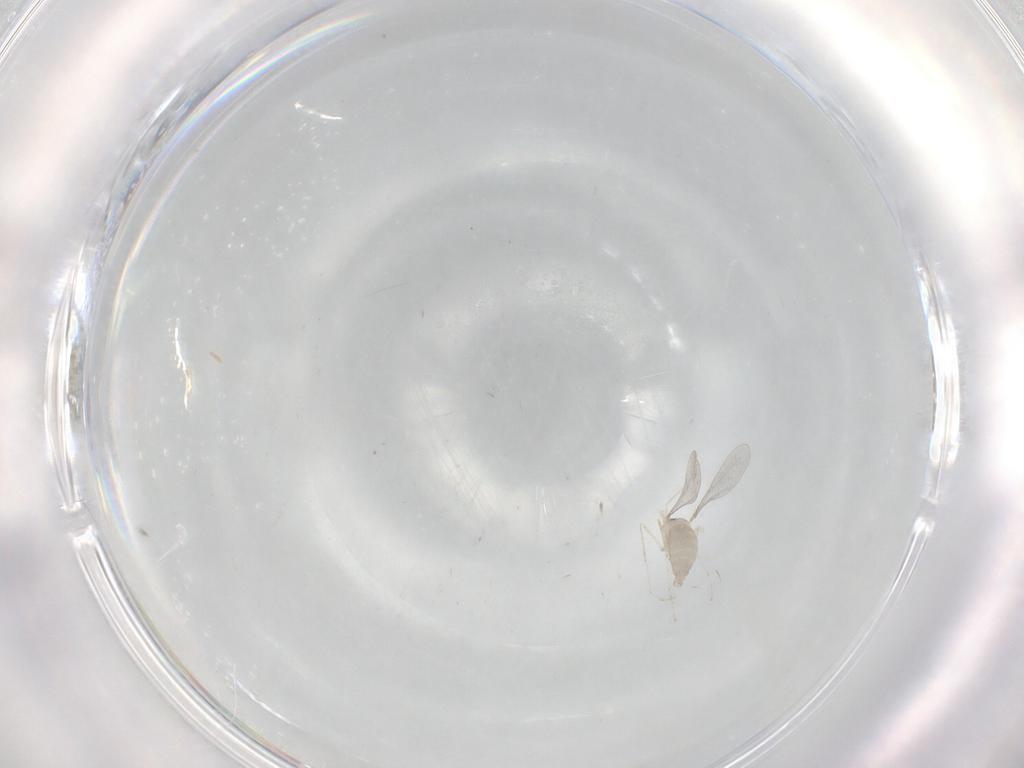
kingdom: Animalia
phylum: Arthropoda
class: Insecta
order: Diptera
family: Cecidomyiidae
